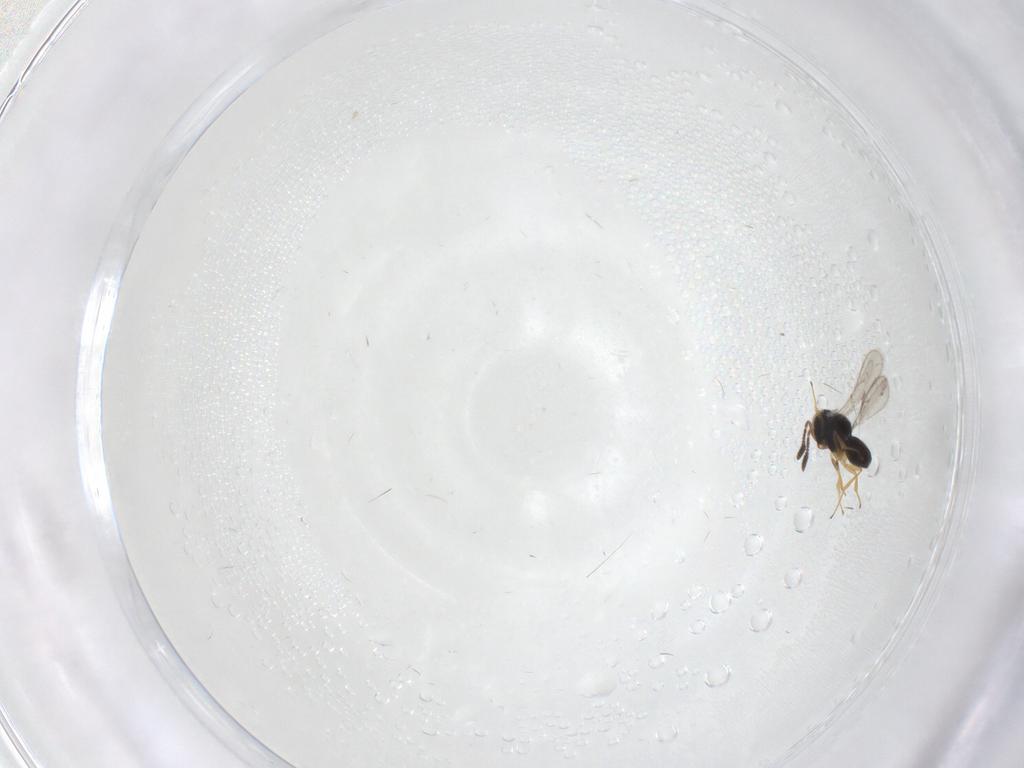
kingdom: Animalia
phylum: Arthropoda
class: Insecta
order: Hymenoptera
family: Scelionidae
